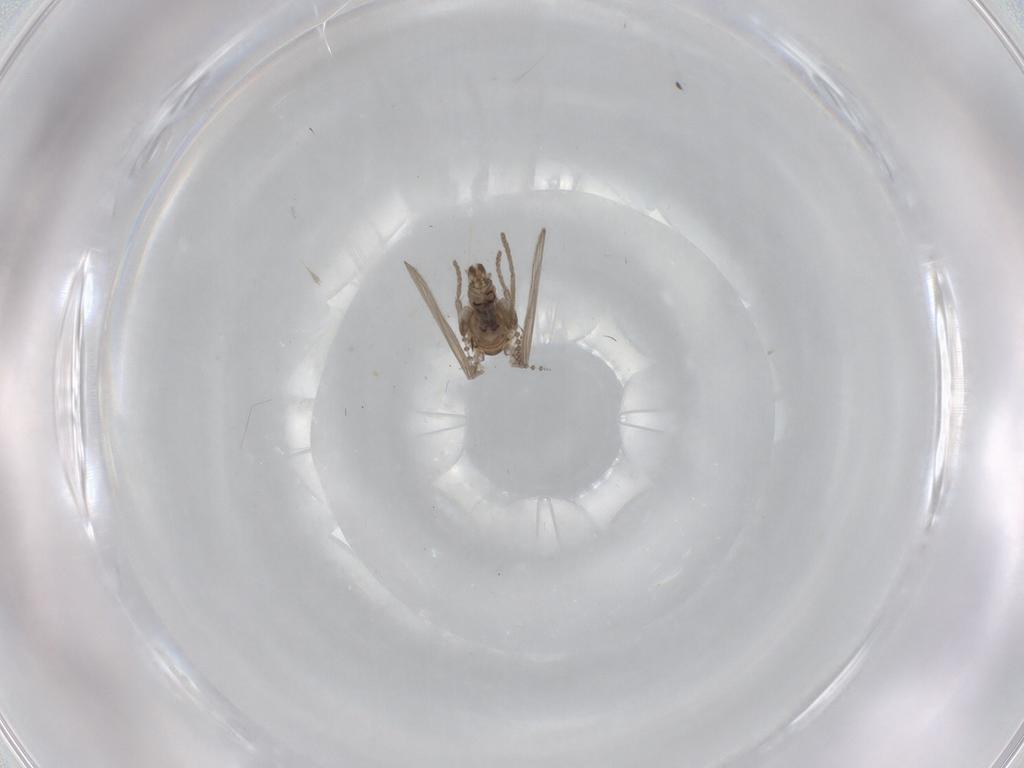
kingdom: Animalia
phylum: Arthropoda
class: Insecta
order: Diptera
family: Psychodidae
